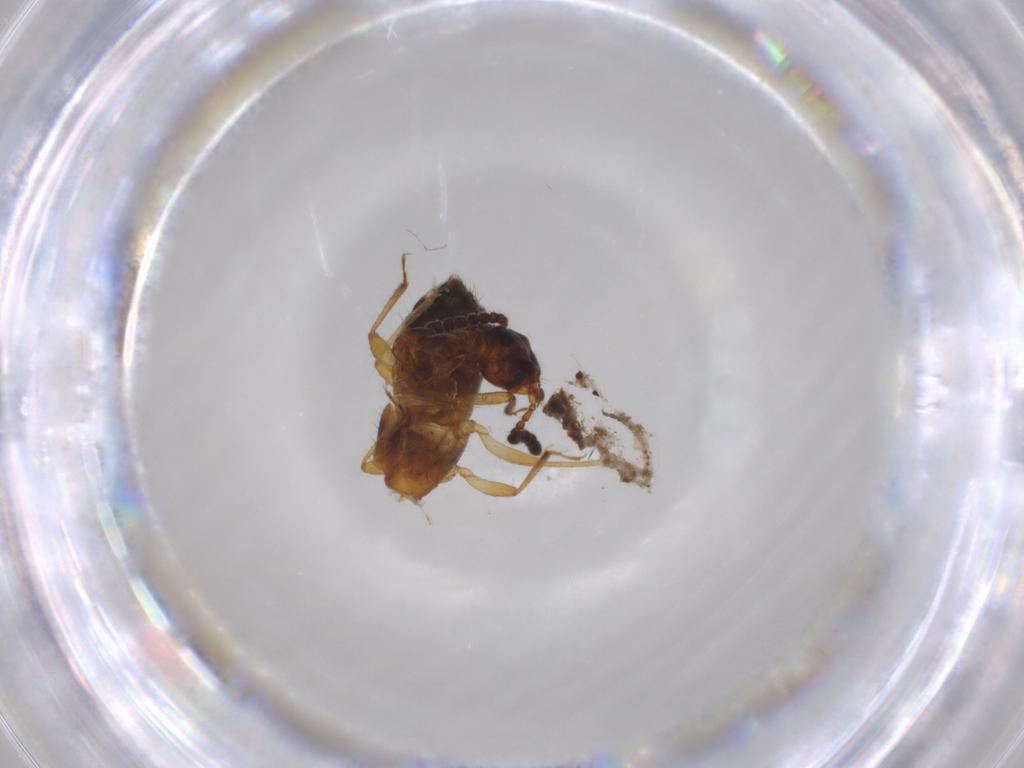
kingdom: Animalia
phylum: Arthropoda
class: Insecta
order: Coleoptera
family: Staphylinidae
